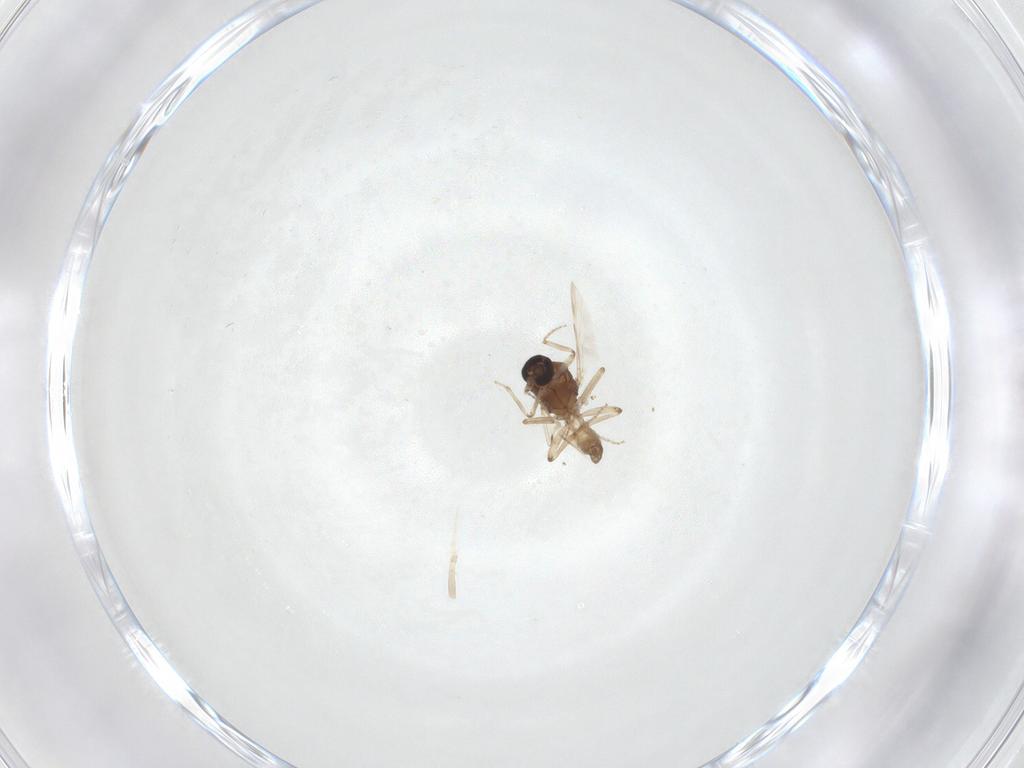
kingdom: Animalia
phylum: Arthropoda
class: Insecta
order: Diptera
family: Ceratopogonidae
